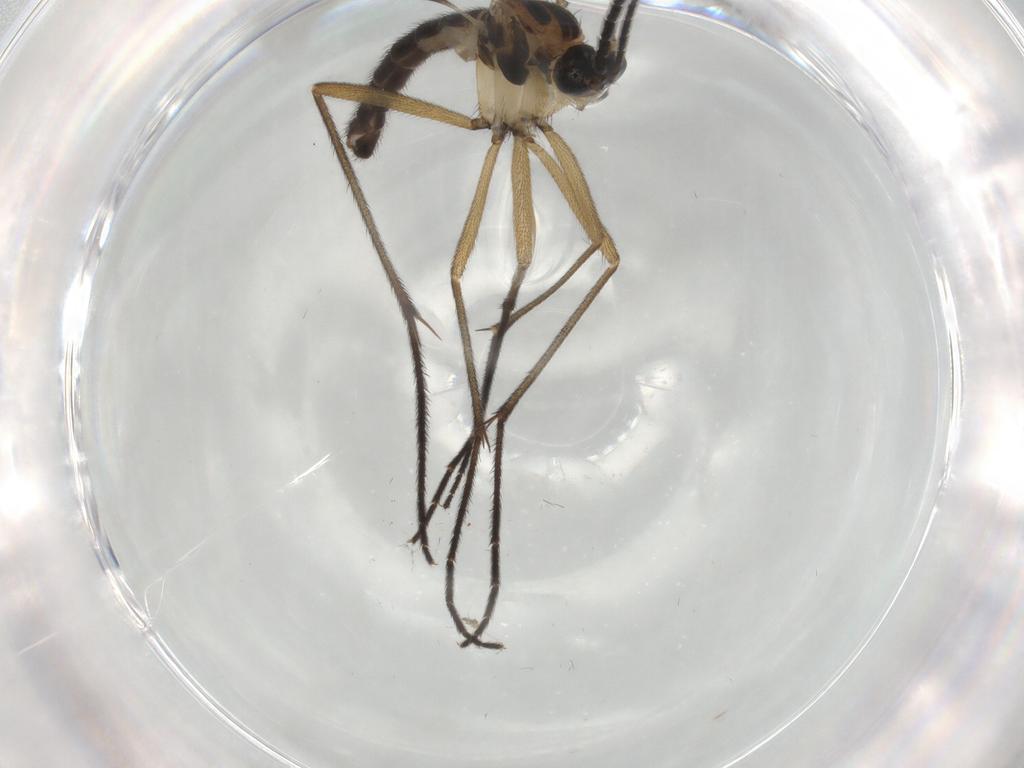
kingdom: Animalia
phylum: Arthropoda
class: Insecta
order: Diptera
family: Sciaridae
